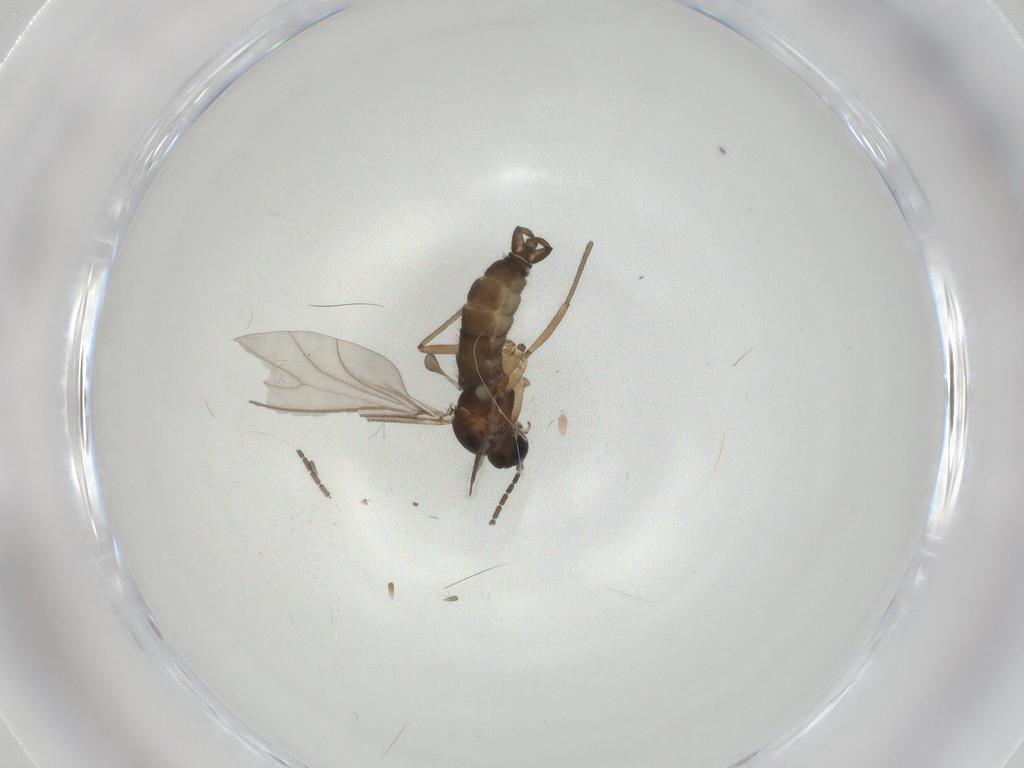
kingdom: Animalia
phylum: Arthropoda
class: Insecta
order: Diptera
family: Sciaridae
